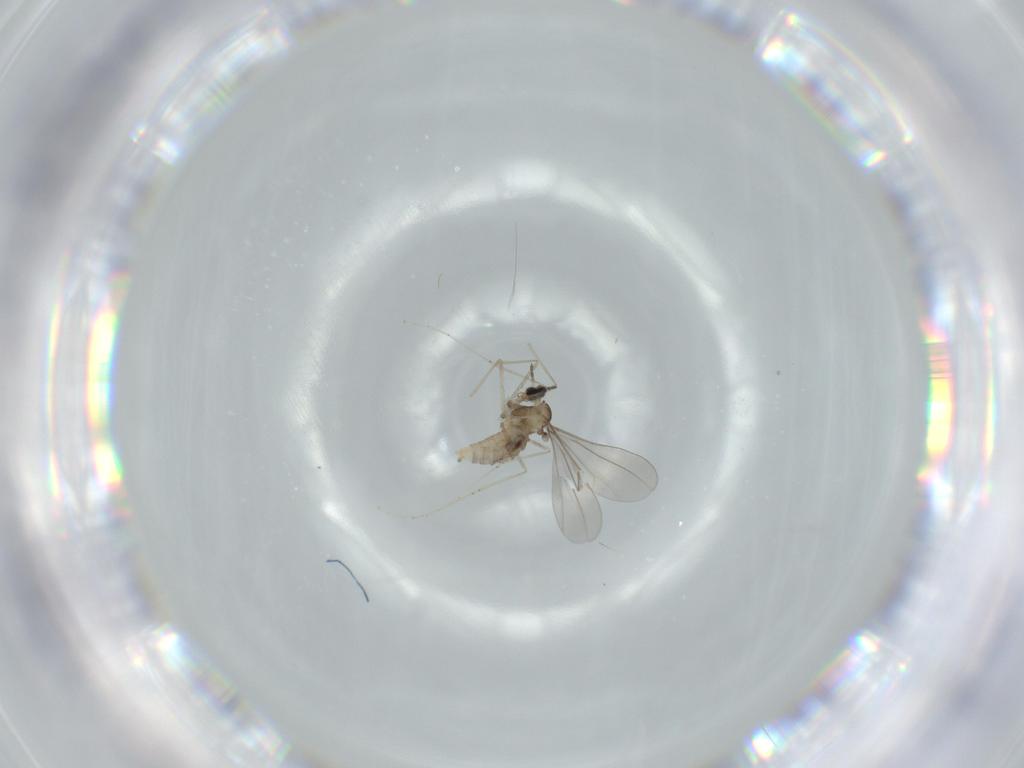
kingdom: Animalia
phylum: Arthropoda
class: Insecta
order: Diptera
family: Cecidomyiidae
